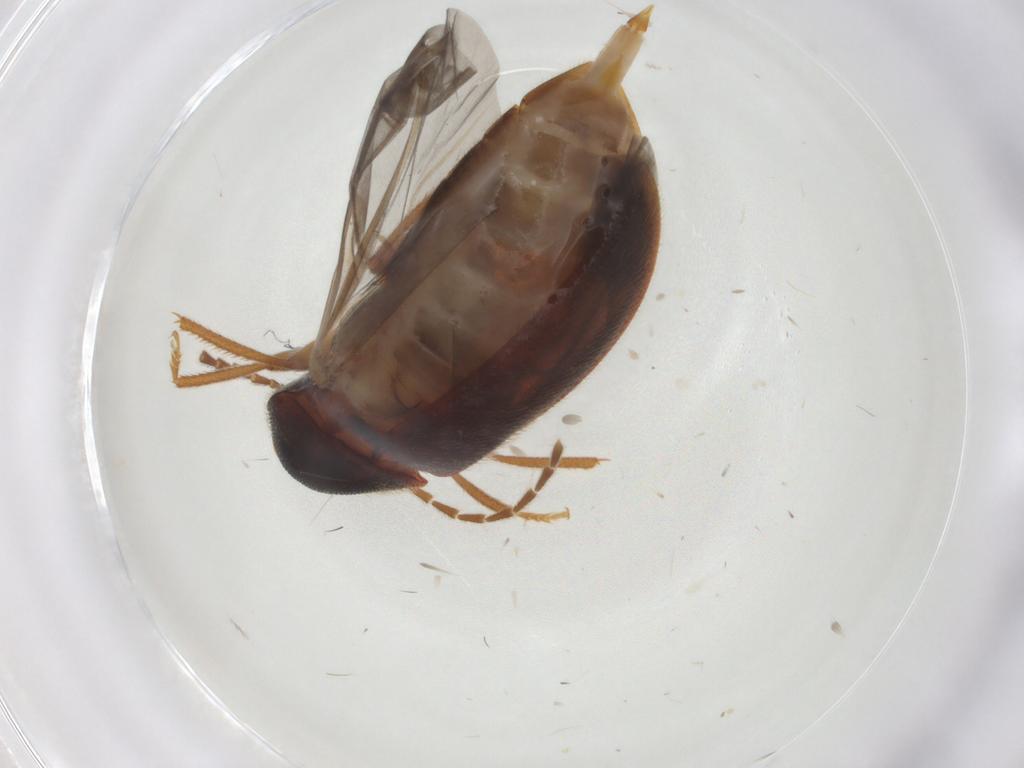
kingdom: Animalia
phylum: Arthropoda
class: Insecta
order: Coleoptera
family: Ptilodactylidae
